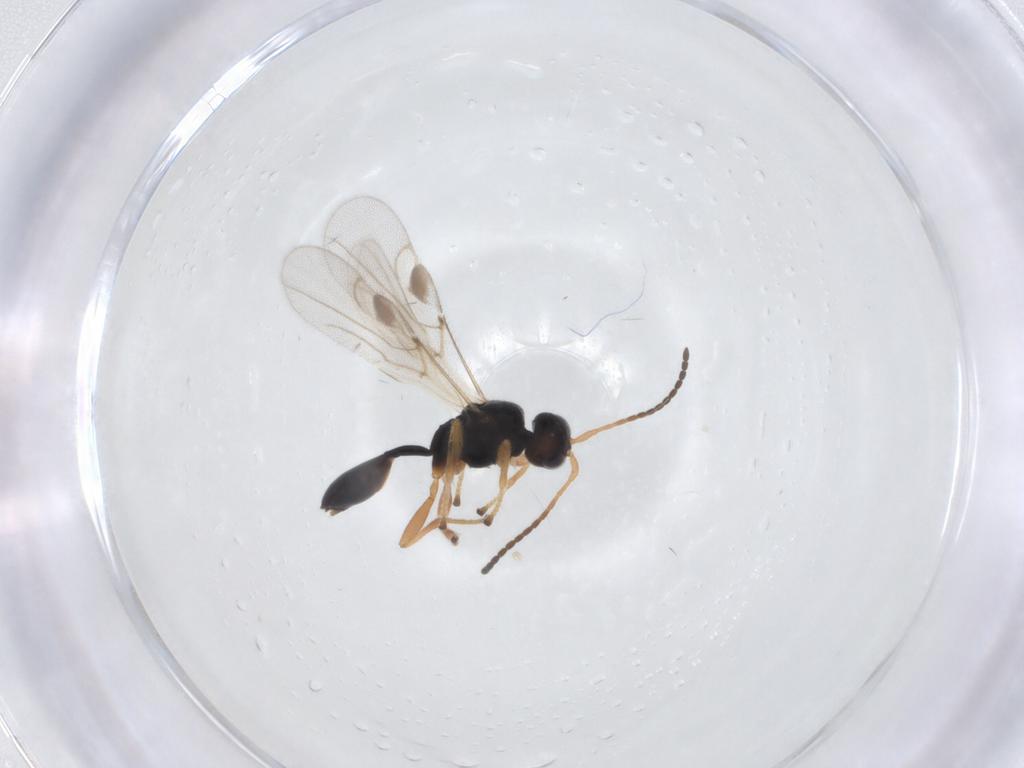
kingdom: Animalia
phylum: Arthropoda
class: Insecta
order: Hymenoptera
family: Braconidae
